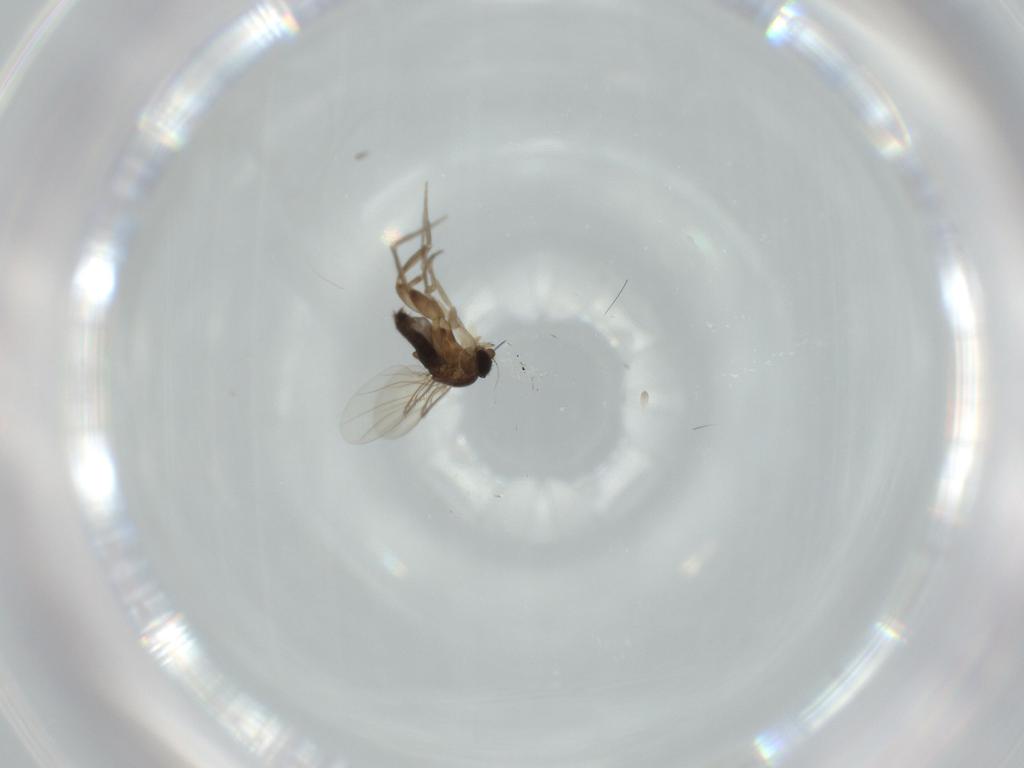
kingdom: Animalia
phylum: Arthropoda
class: Insecta
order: Diptera
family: Phoridae
